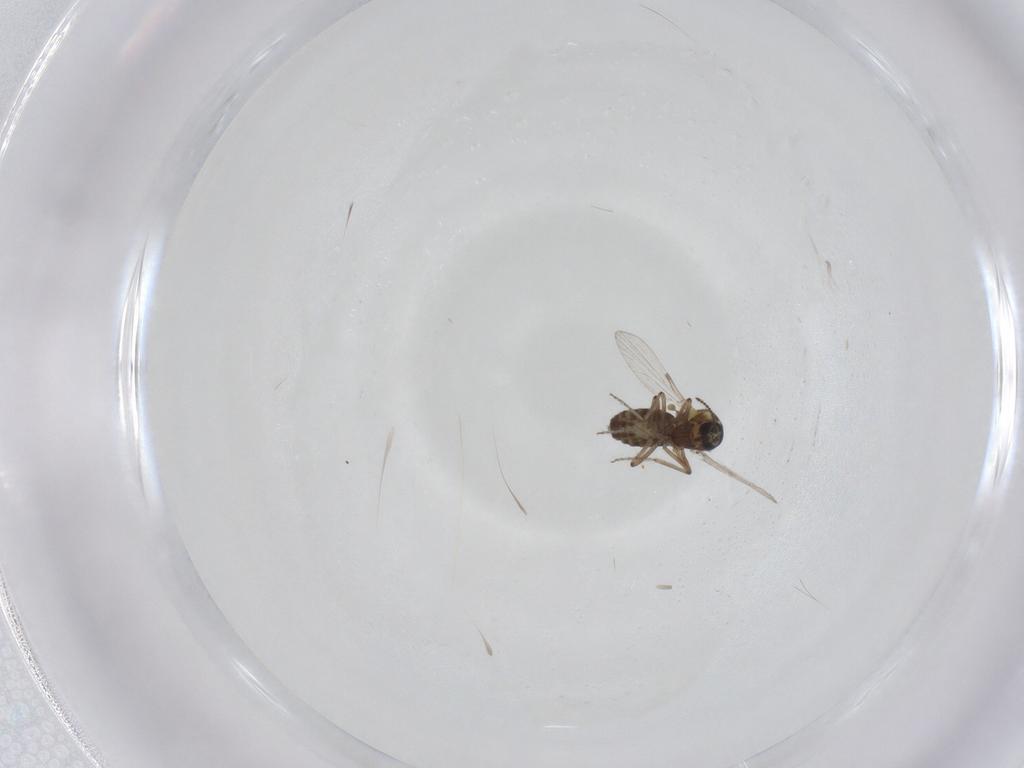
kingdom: Animalia
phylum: Arthropoda
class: Insecta
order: Diptera
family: Ceratopogonidae
